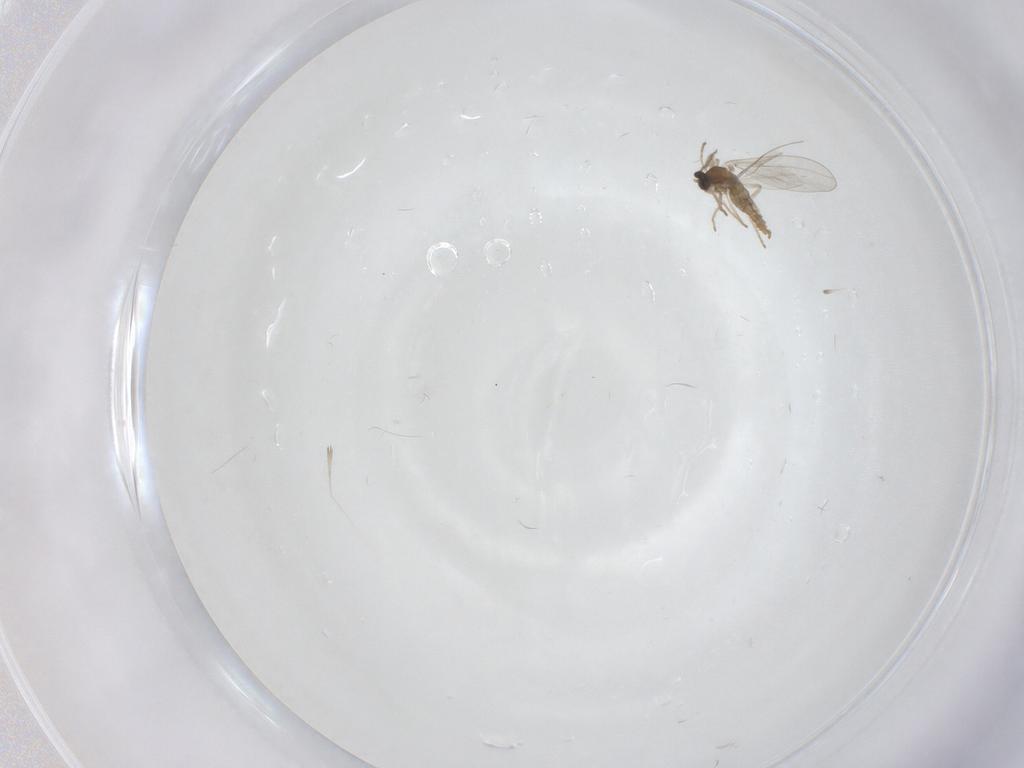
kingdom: Animalia
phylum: Arthropoda
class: Insecta
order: Diptera
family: Cecidomyiidae
